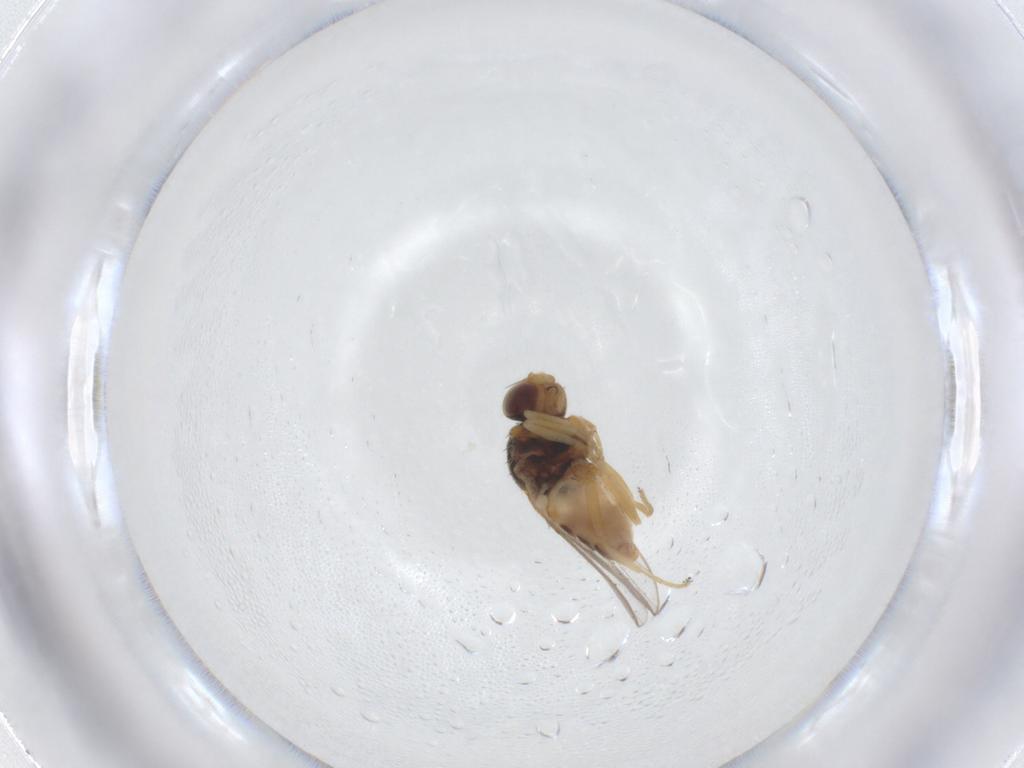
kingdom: Animalia
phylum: Arthropoda
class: Insecta
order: Diptera
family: Chloropidae
